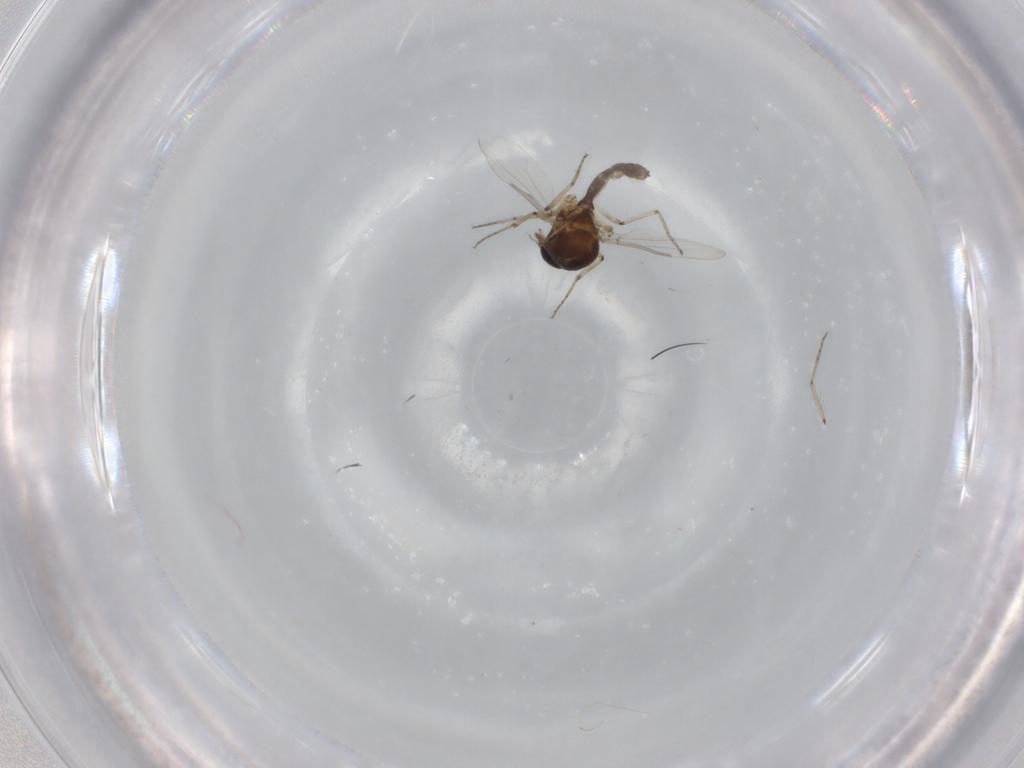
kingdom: Animalia
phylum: Arthropoda
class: Insecta
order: Diptera
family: Ceratopogonidae
